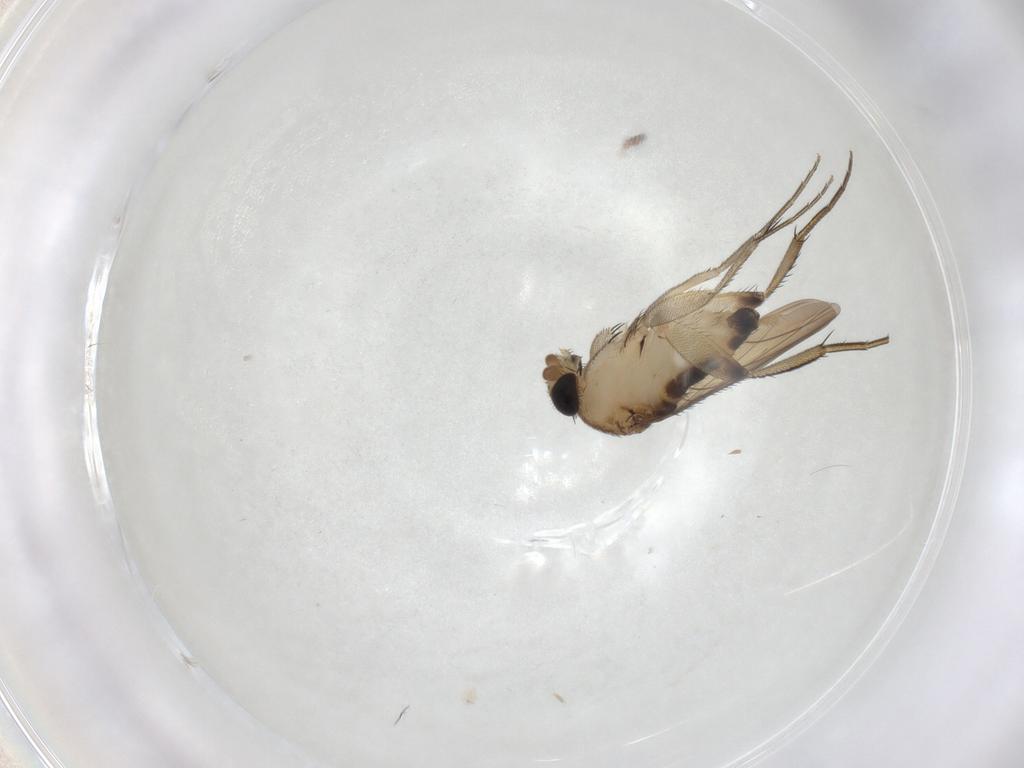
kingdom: Animalia
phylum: Arthropoda
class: Insecta
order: Diptera
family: Phoridae
